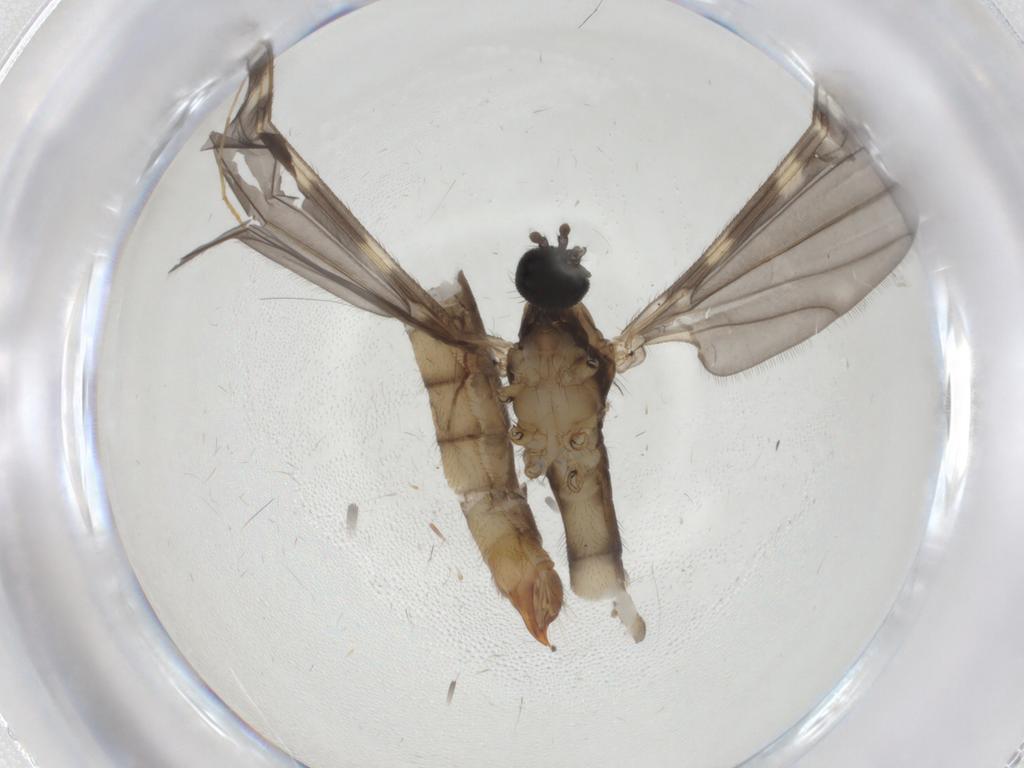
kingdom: Animalia
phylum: Arthropoda
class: Insecta
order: Diptera
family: Limoniidae
